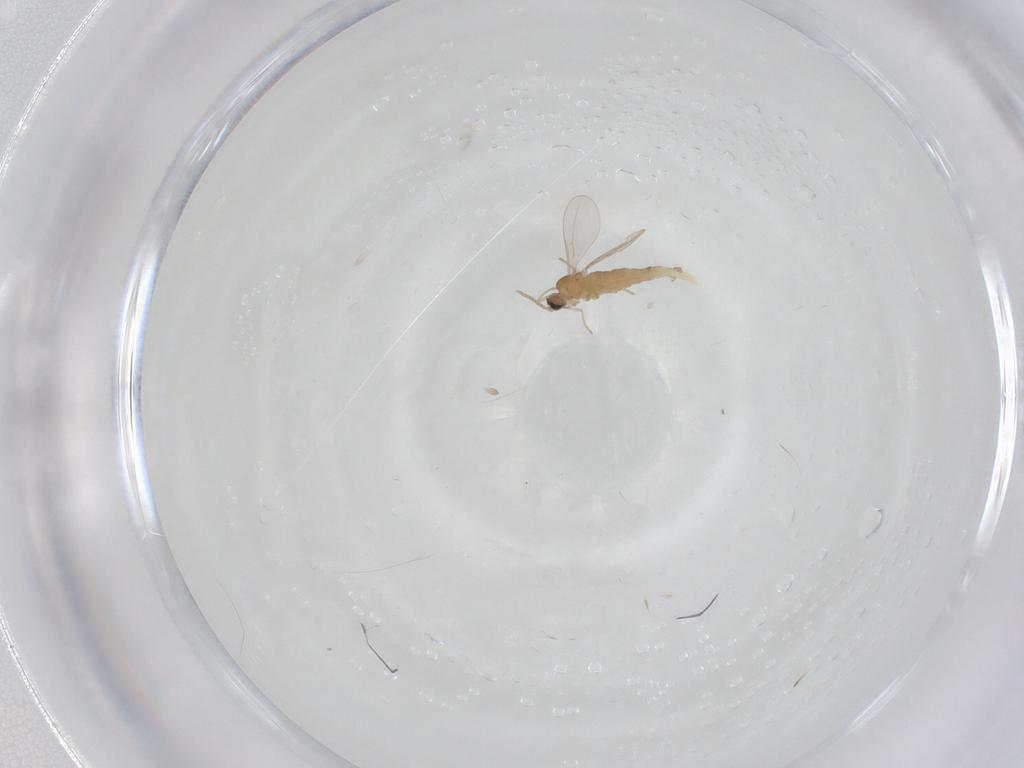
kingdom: Animalia
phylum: Arthropoda
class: Insecta
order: Diptera
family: Cecidomyiidae
